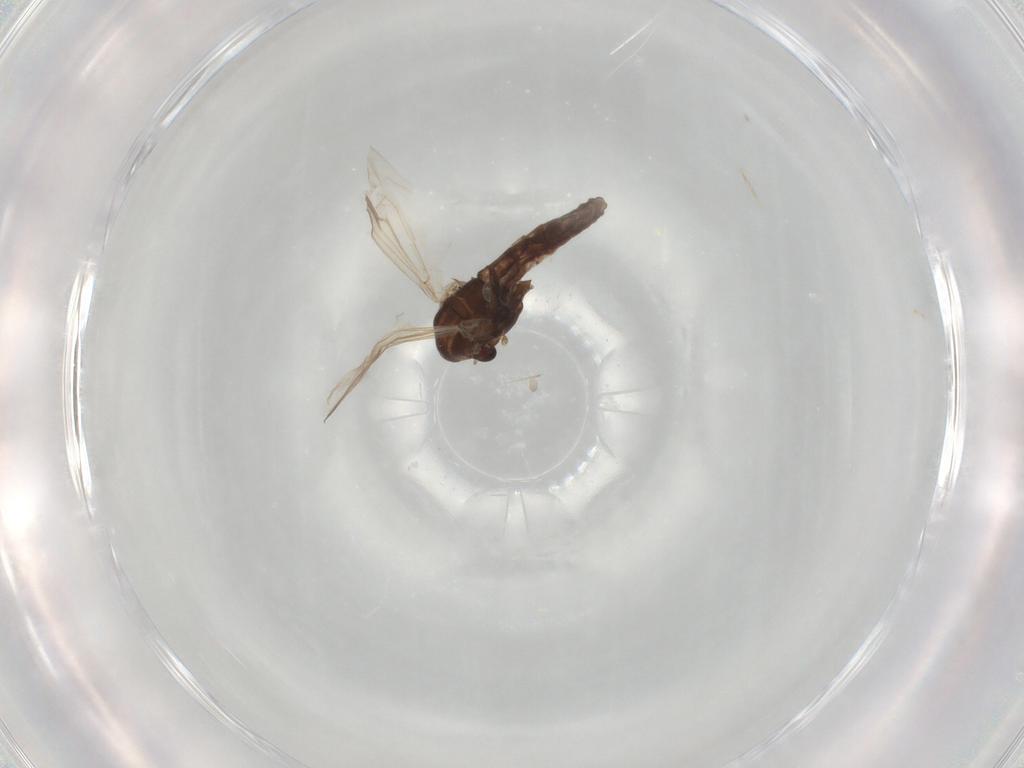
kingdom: Animalia
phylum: Arthropoda
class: Insecta
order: Diptera
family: Chironomidae
